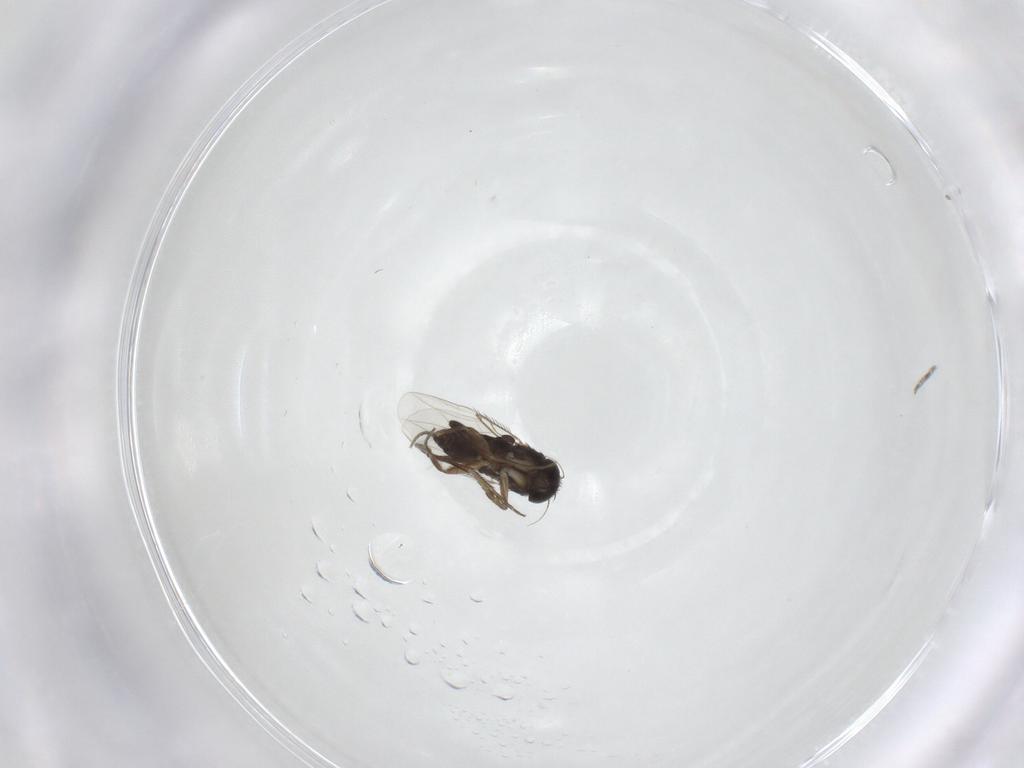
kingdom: Animalia
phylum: Arthropoda
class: Insecta
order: Diptera
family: Phoridae
